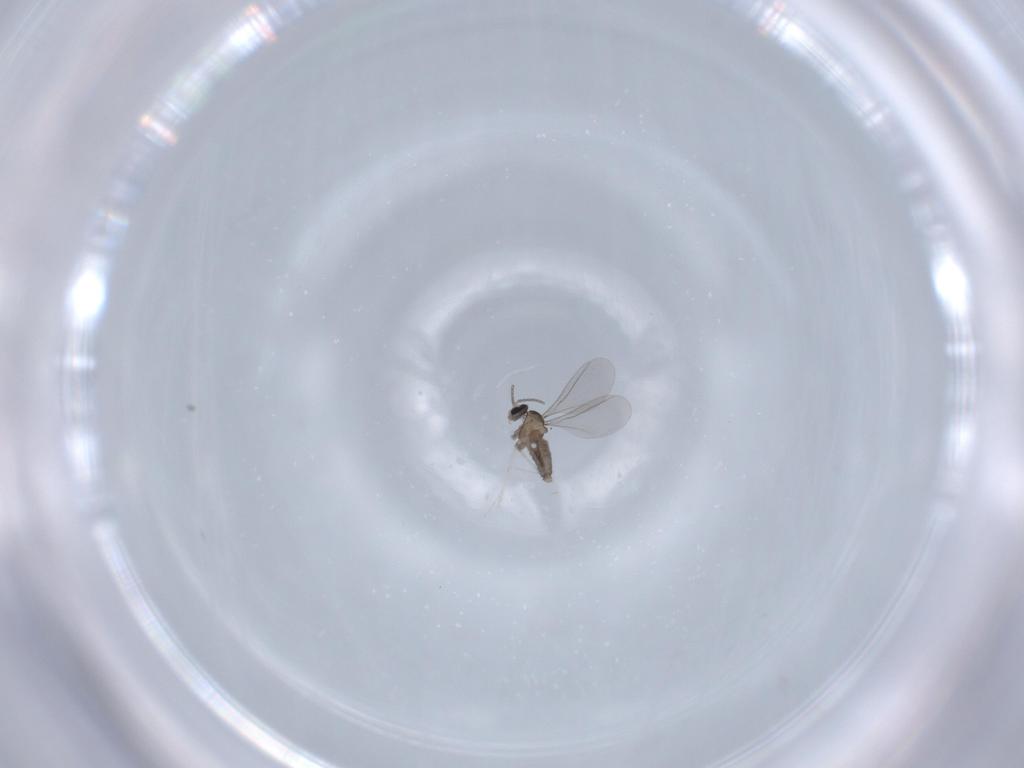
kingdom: Animalia
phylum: Arthropoda
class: Insecta
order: Diptera
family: Cecidomyiidae
